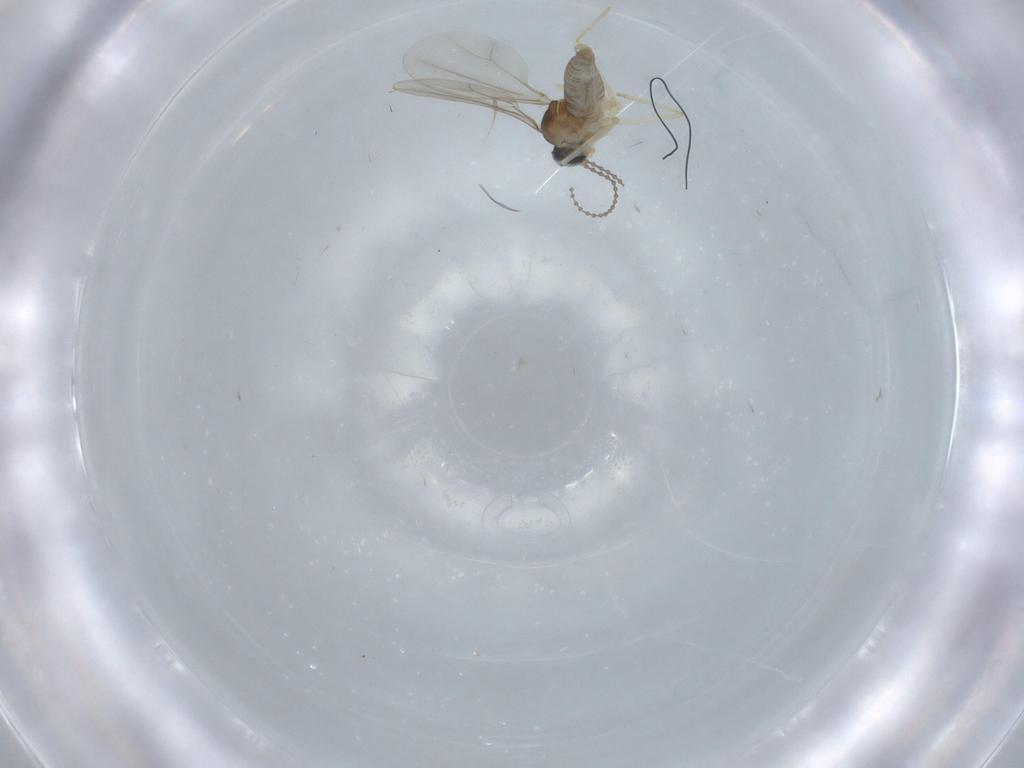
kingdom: Animalia
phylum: Arthropoda
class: Insecta
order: Diptera
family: Cecidomyiidae
